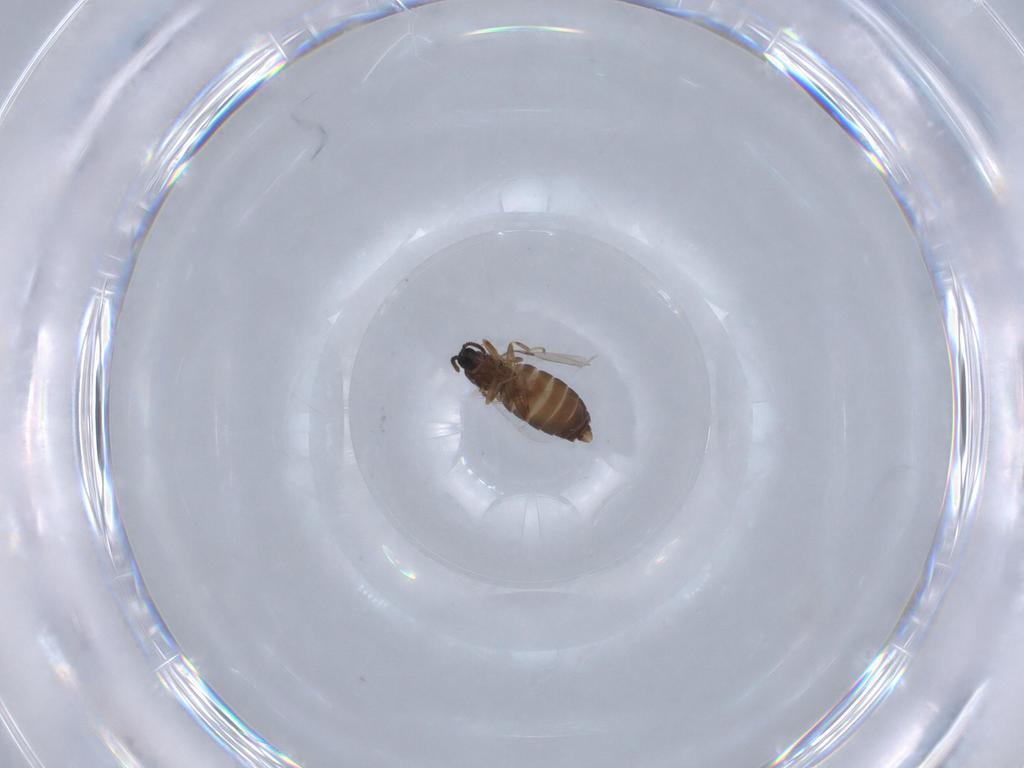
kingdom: Animalia
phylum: Arthropoda
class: Insecta
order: Diptera
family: Scatopsidae
